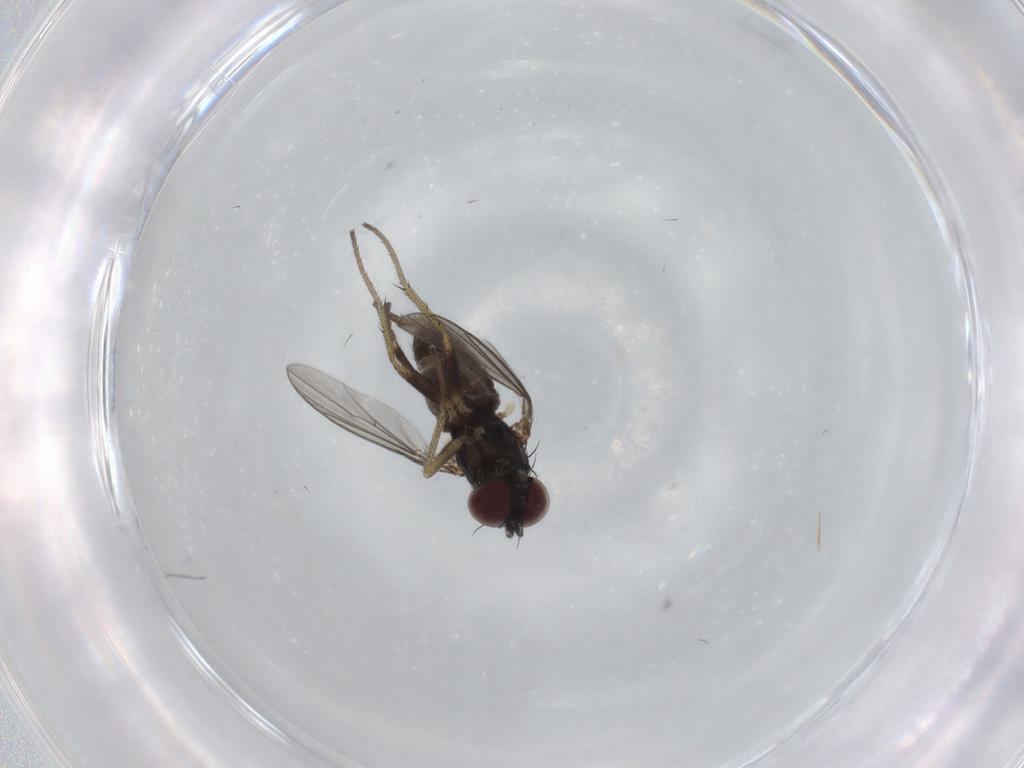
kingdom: Animalia
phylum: Arthropoda
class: Insecta
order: Diptera
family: Dolichopodidae
